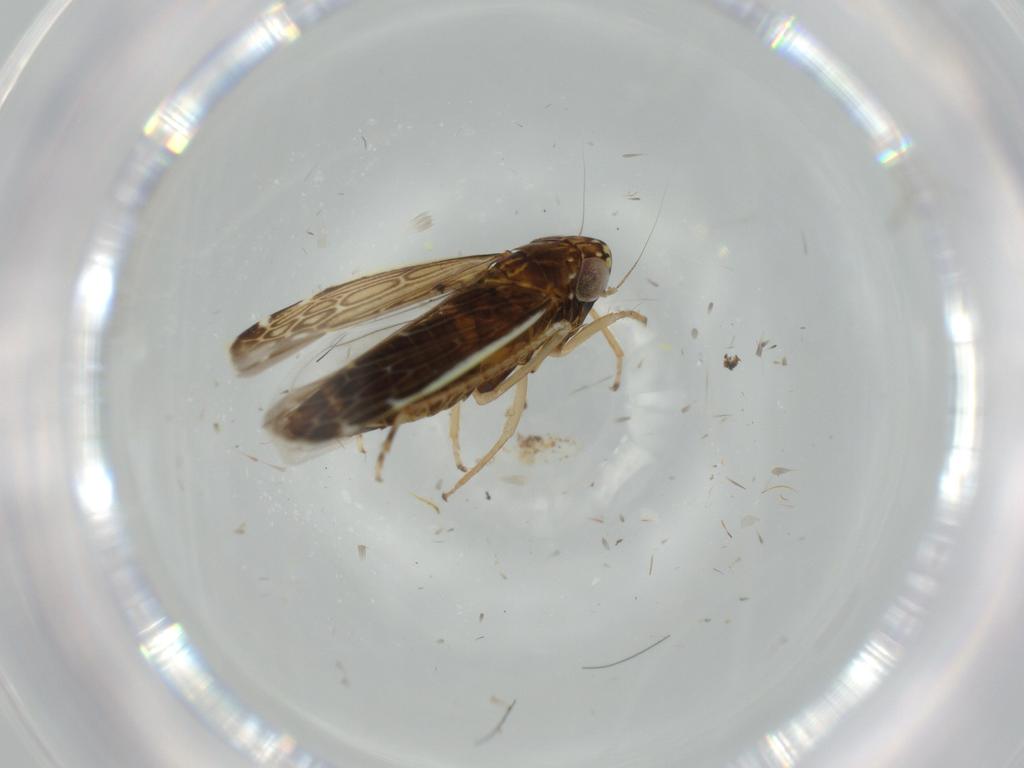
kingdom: Animalia
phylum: Arthropoda
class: Insecta
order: Hemiptera
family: Cicadellidae
